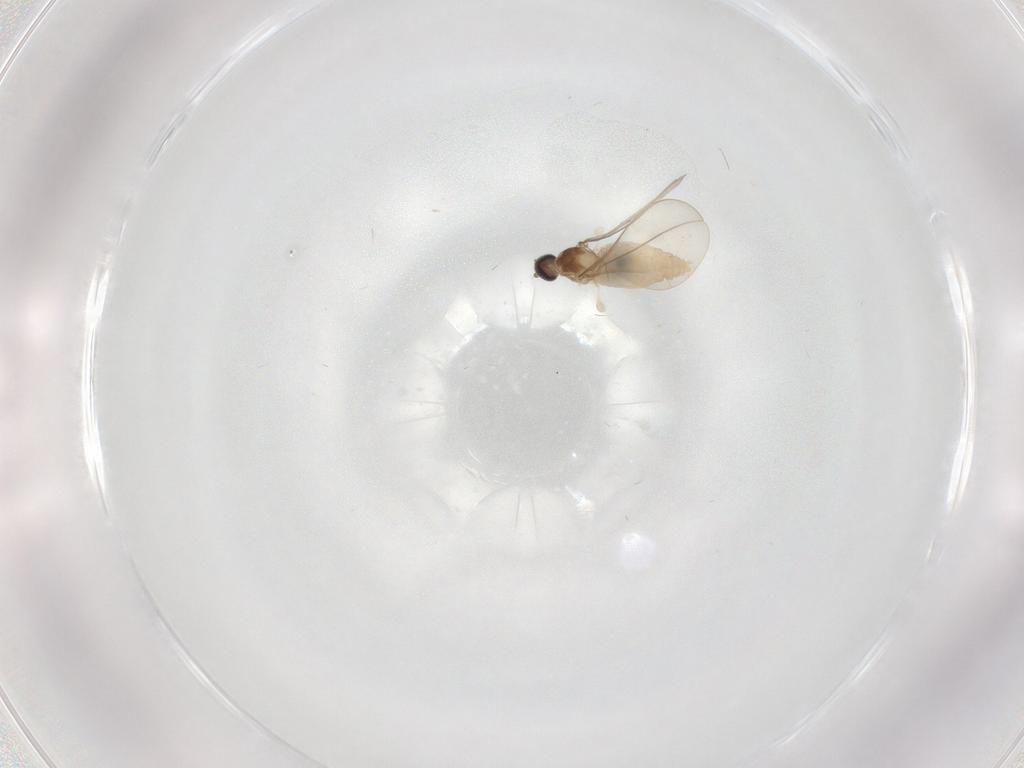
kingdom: Animalia
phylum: Arthropoda
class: Insecta
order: Diptera
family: Cecidomyiidae
